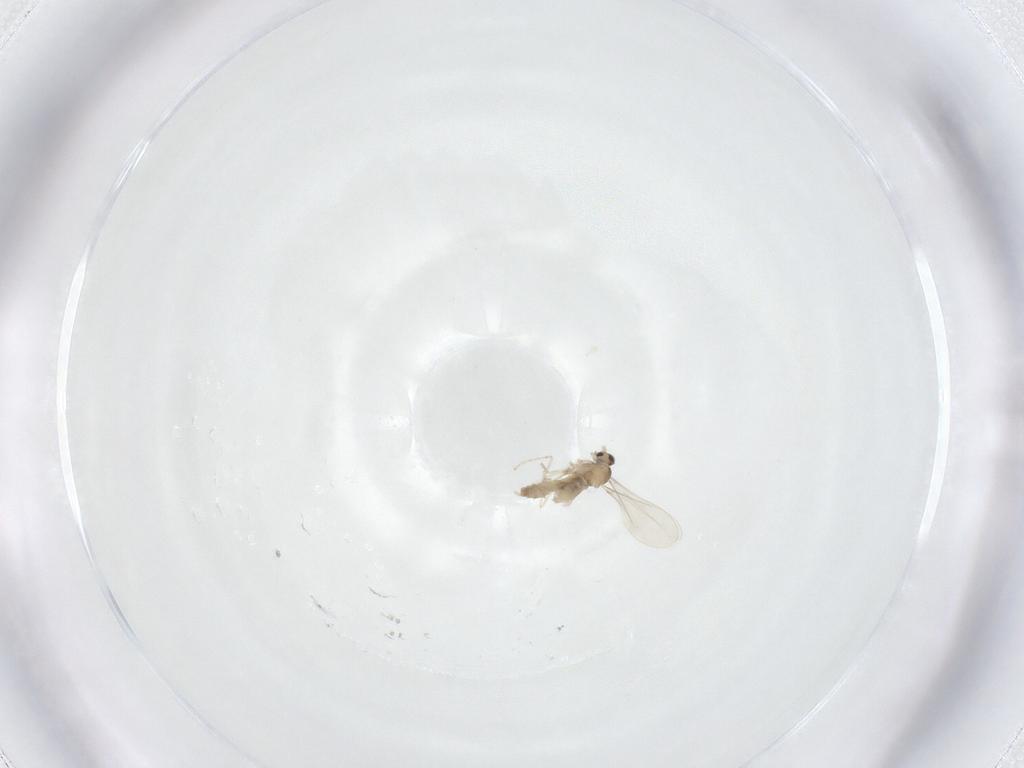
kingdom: Animalia
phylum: Arthropoda
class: Insecta
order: Diptera
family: Cecidomyiidae
